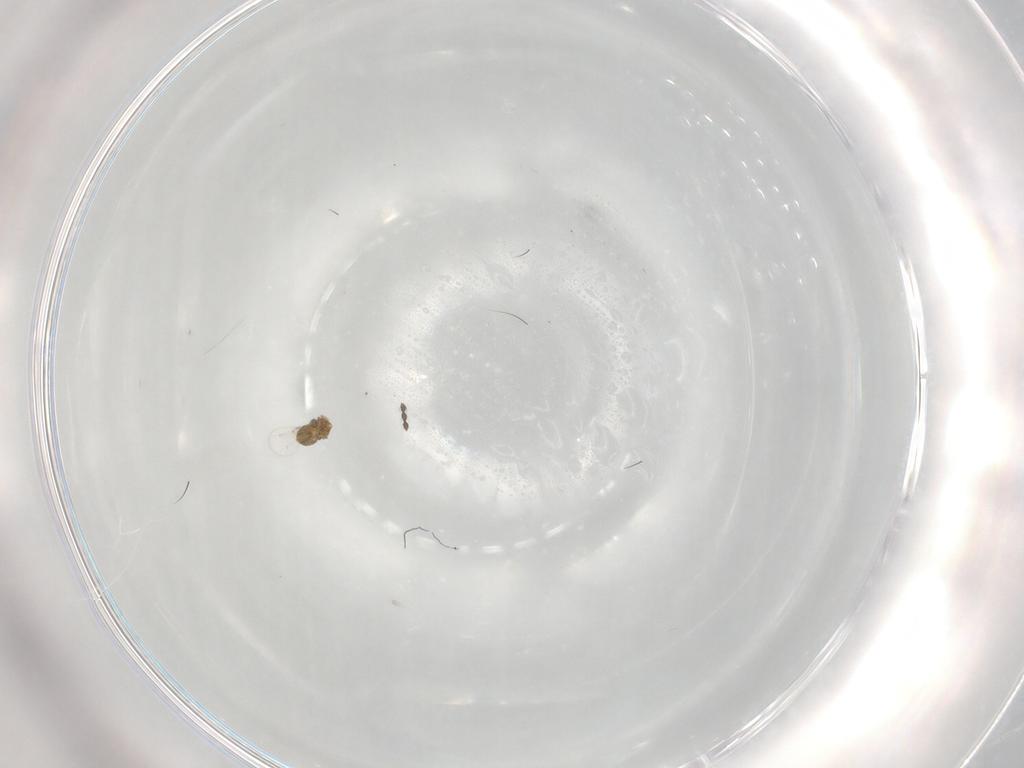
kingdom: Animalia
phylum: Arthropoda
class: Insecta
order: Hymenoptera
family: Trichogrammatidae
